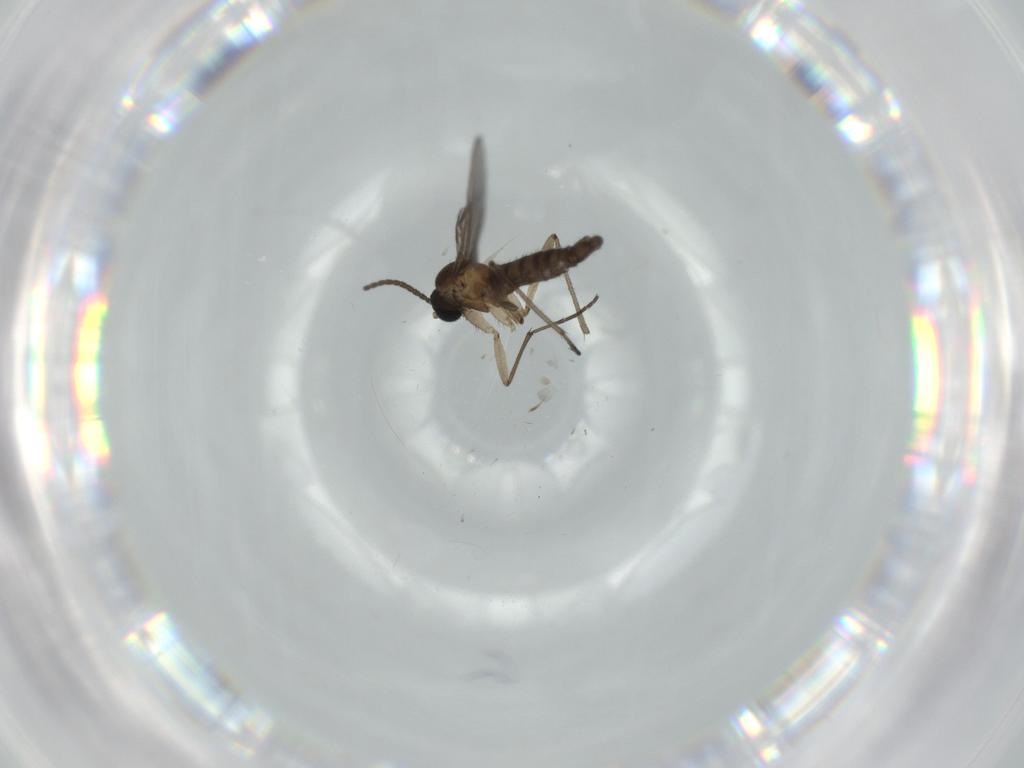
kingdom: Animalia
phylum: Arthropoda
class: Insecta
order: Diptera
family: Sciaridae
